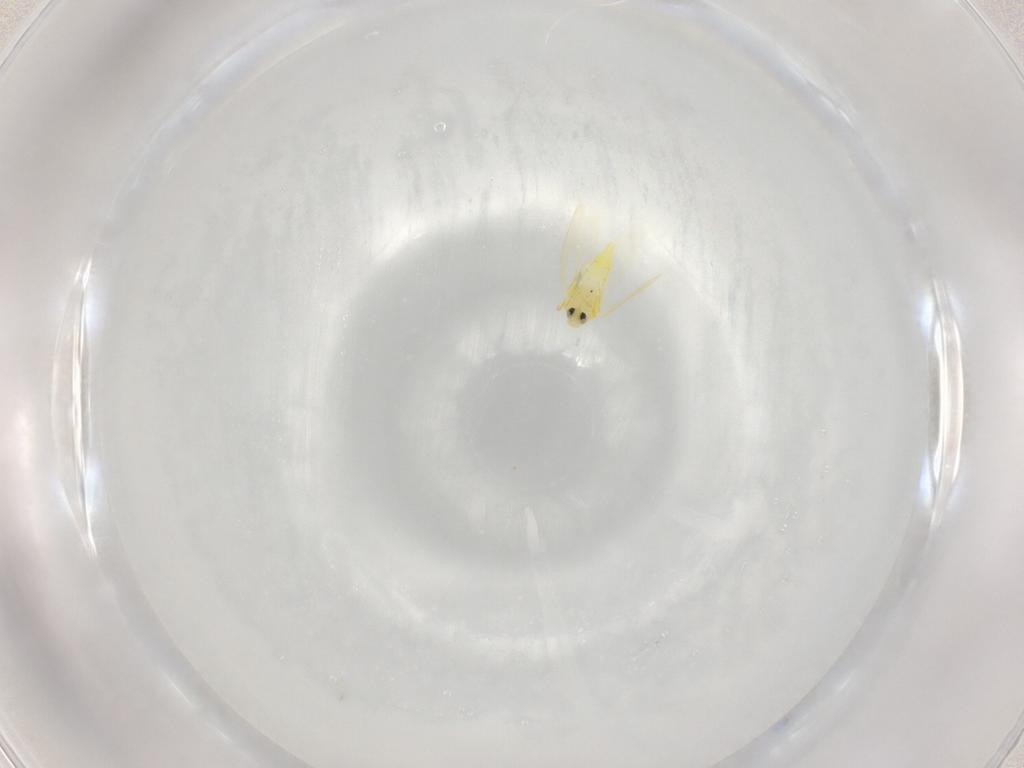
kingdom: Animalia
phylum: Arthropoda
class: Insecta
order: Hemiptera
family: Aleyrodidae
